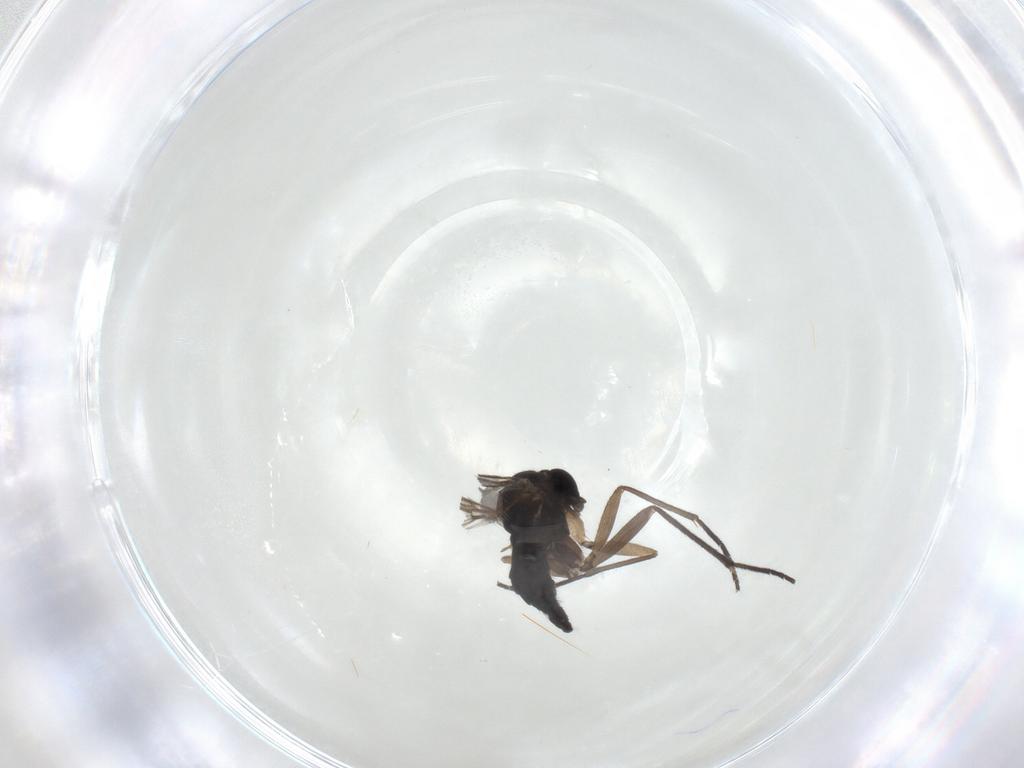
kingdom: Animalia
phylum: Arthropoda
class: Insecta
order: Diptera
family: Sciaridae
